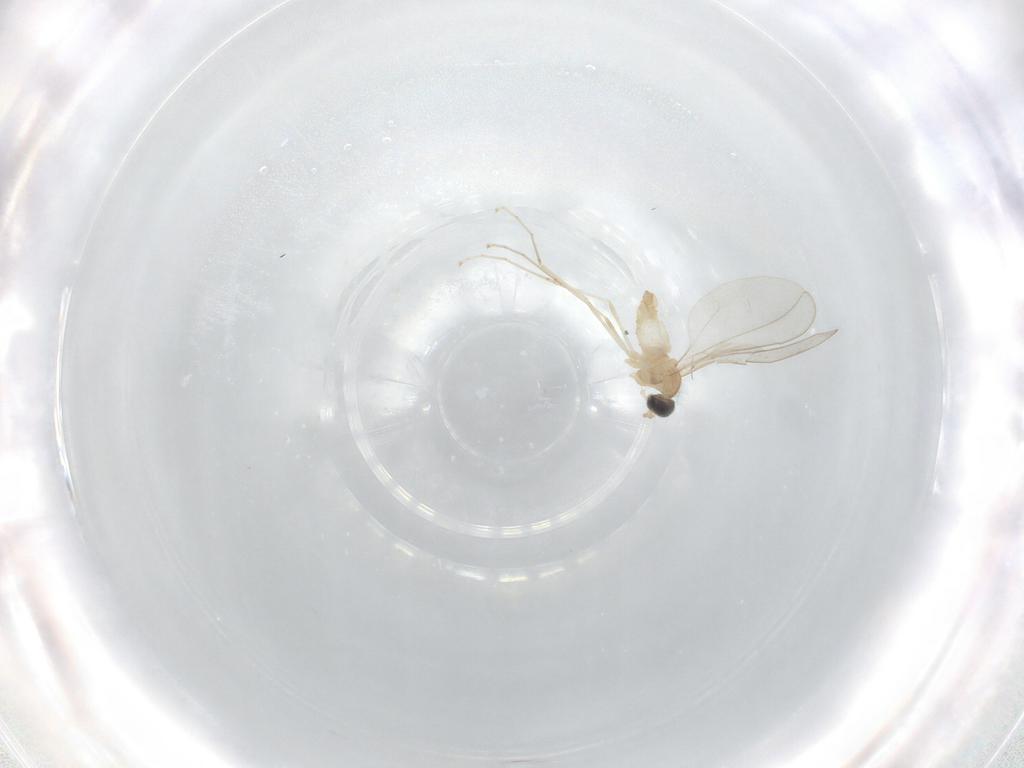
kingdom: Animalia
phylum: Arthropoda
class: Insecta
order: Diptera
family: Cecidomyiidae
